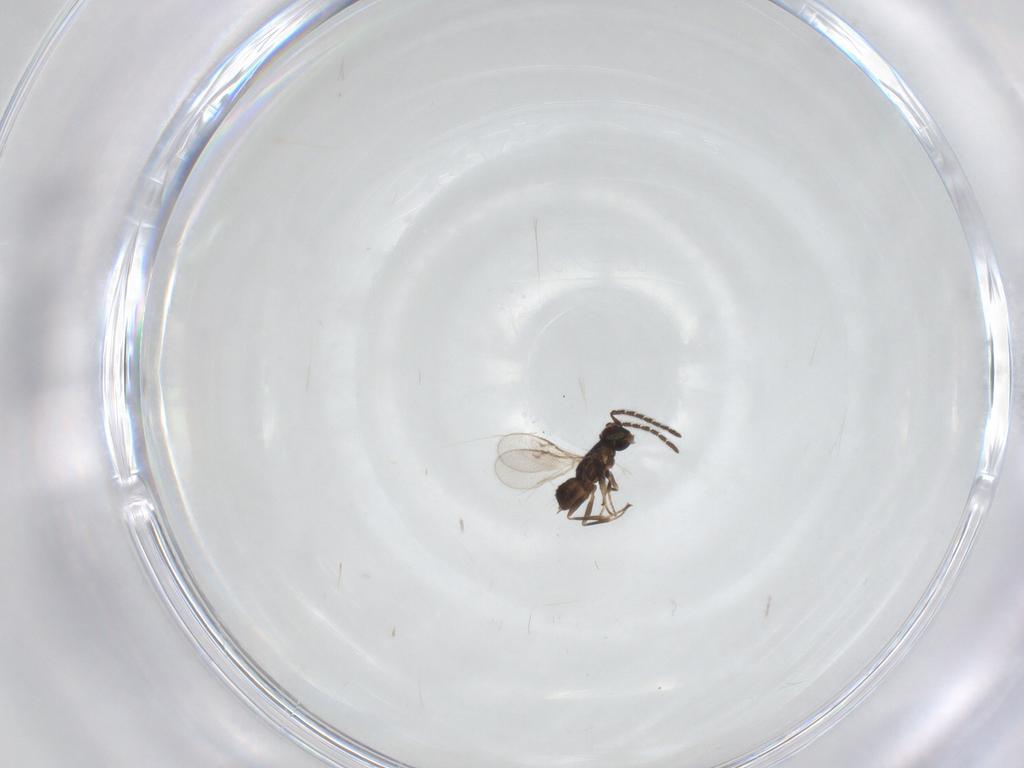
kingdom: Animalia
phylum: Arthropoda
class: Insecta
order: Hymenoptera
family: Encyrtidae
